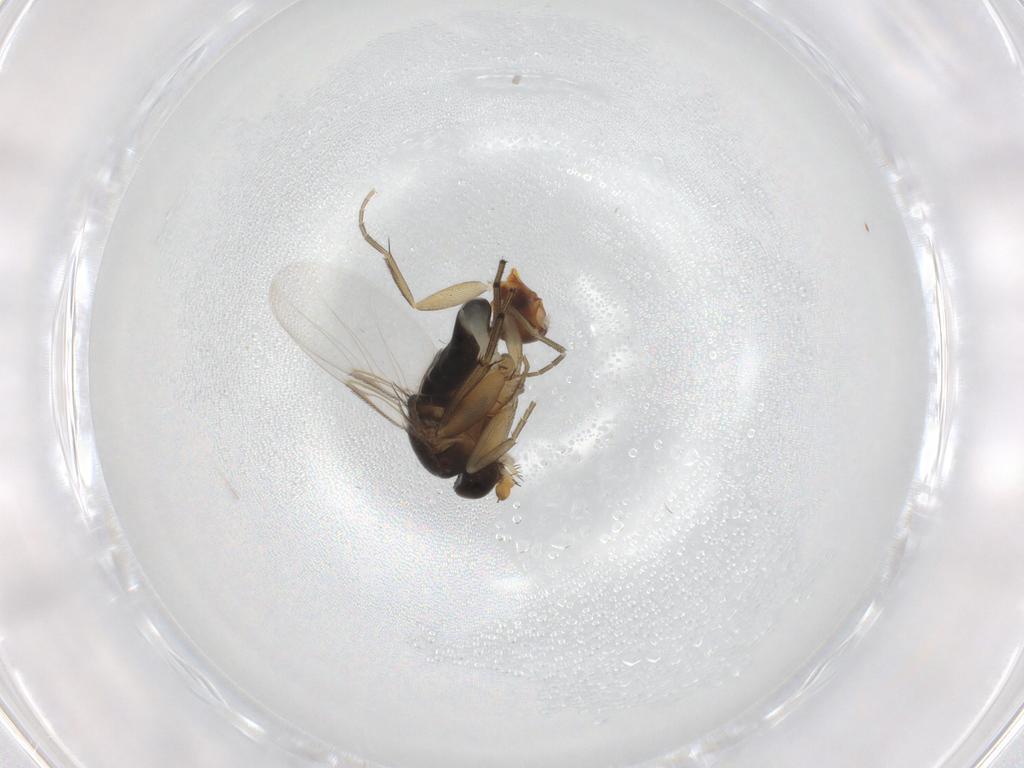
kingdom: Animalia
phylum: Arthropoda
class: Insecta
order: Diptera
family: Phoridae
